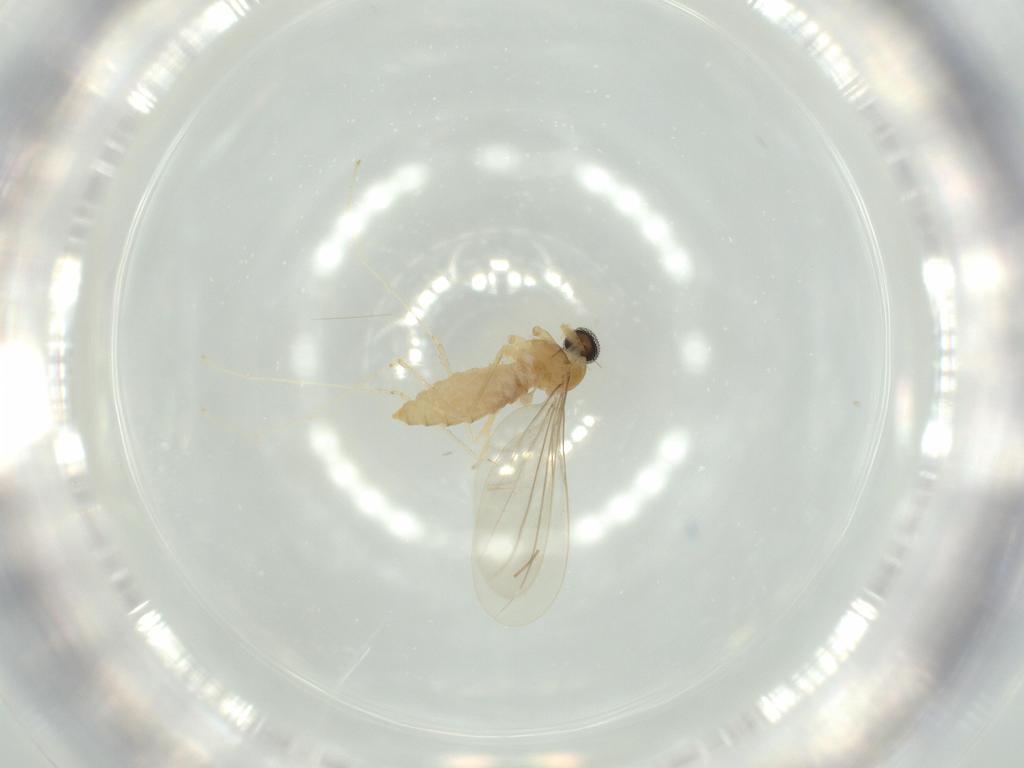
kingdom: Animalia
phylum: Arthropoda
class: Insecta
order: Diptera
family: Cecidomyiidae
